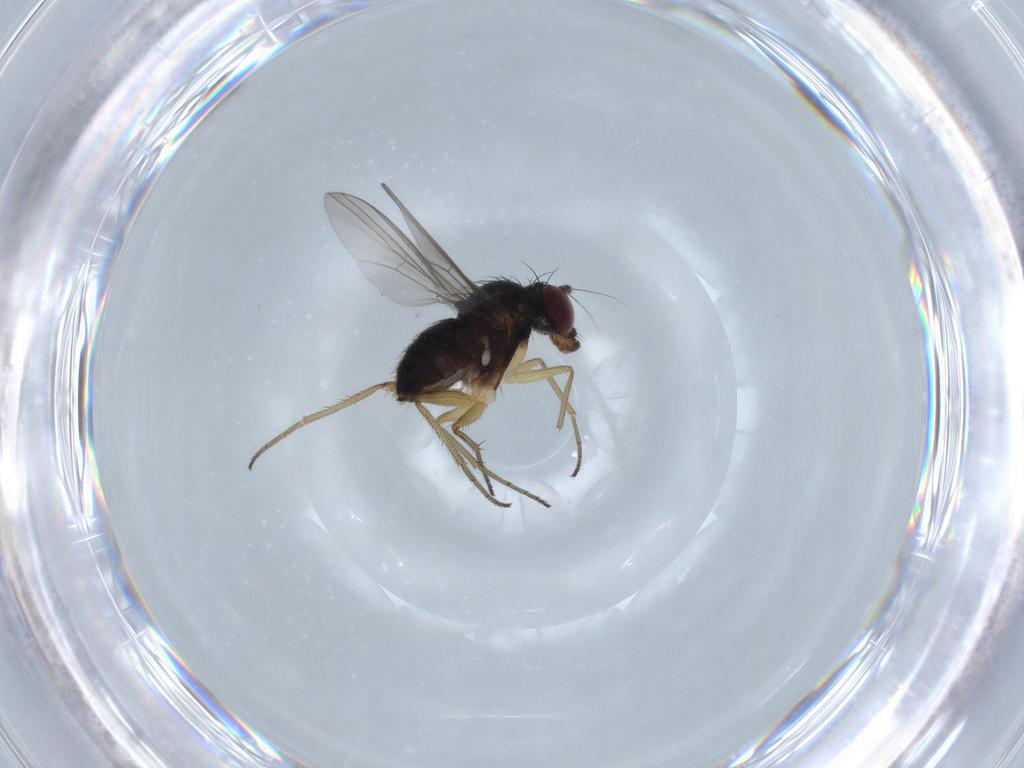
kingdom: Animalia
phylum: Arthropoda
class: Insecta
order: Diptera
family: Dolichopodidae
